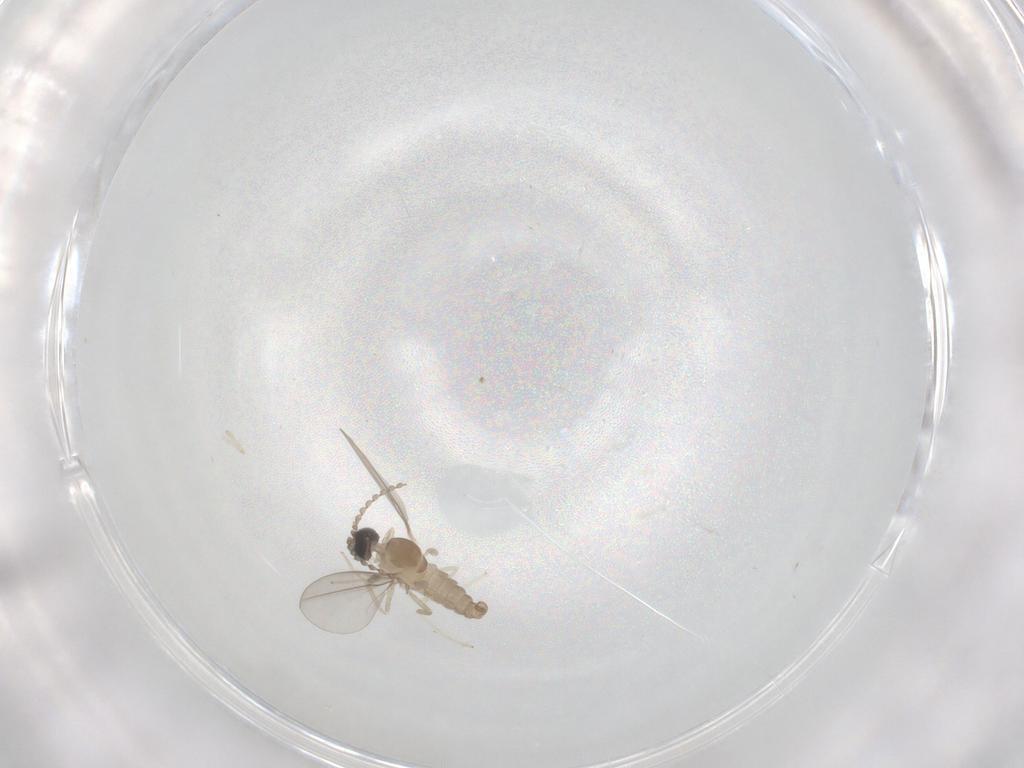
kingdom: Animalia
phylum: Arthropoda
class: Insecta
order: Diptera
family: Cecidomyiidae
